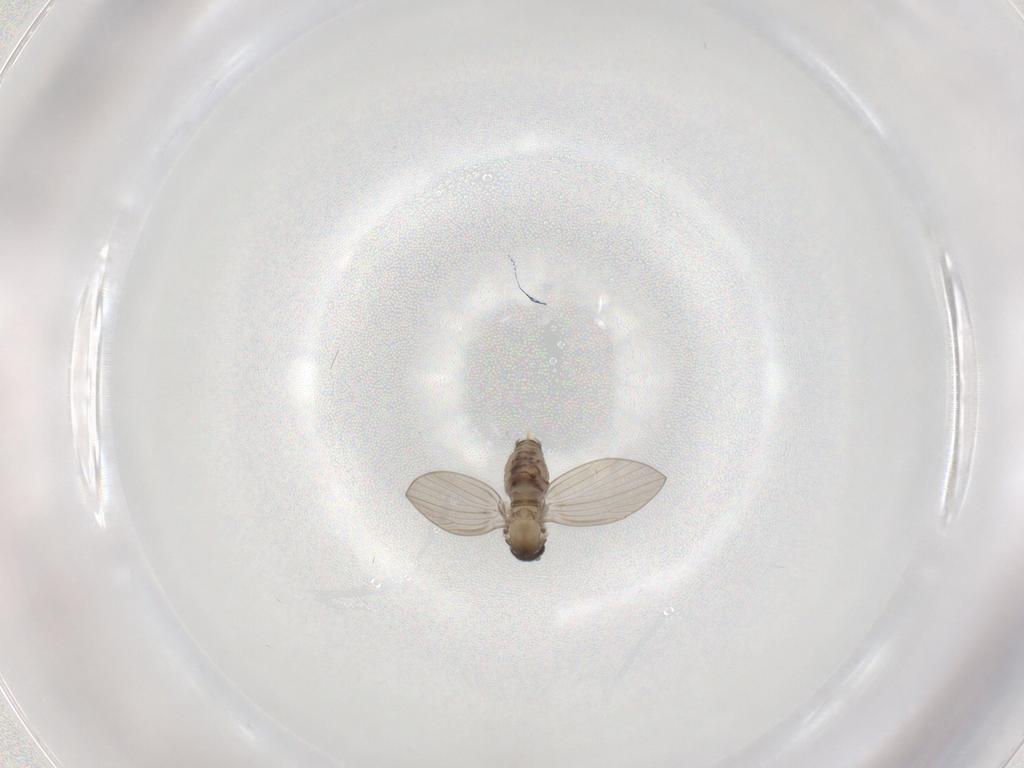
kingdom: Animalia
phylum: Arthropoda
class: Insecta
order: Diptera
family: Psychodidae
